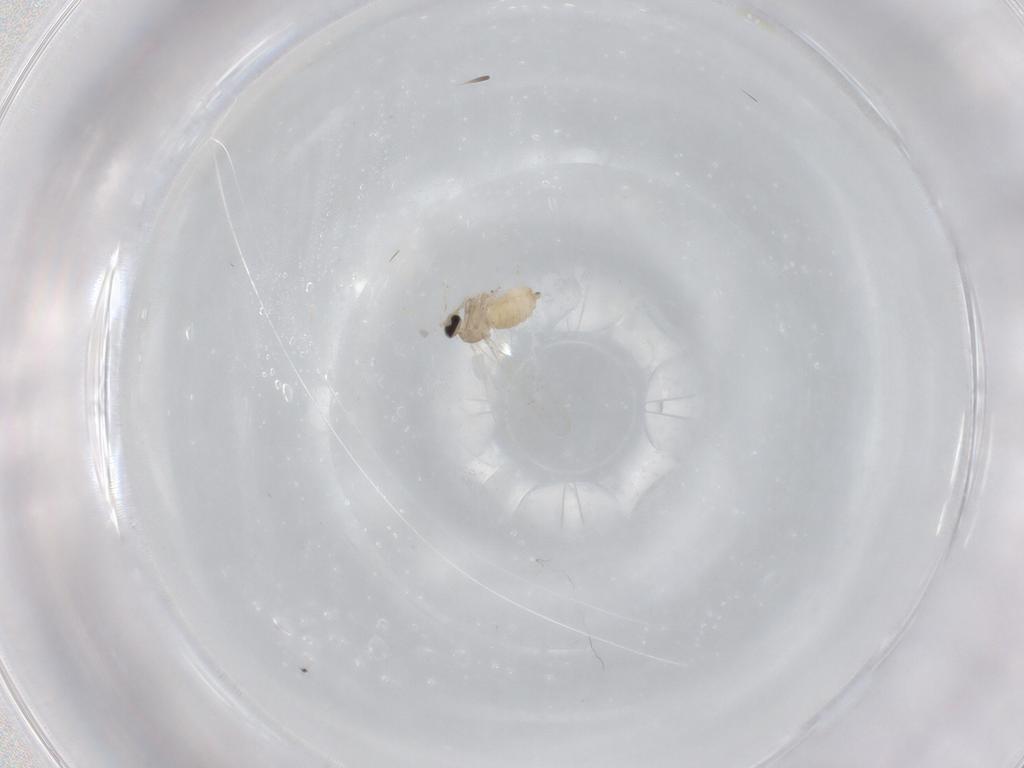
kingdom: Animalia
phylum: Arthropoda
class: Insecta
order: Diptera
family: Cecidomyiidae
